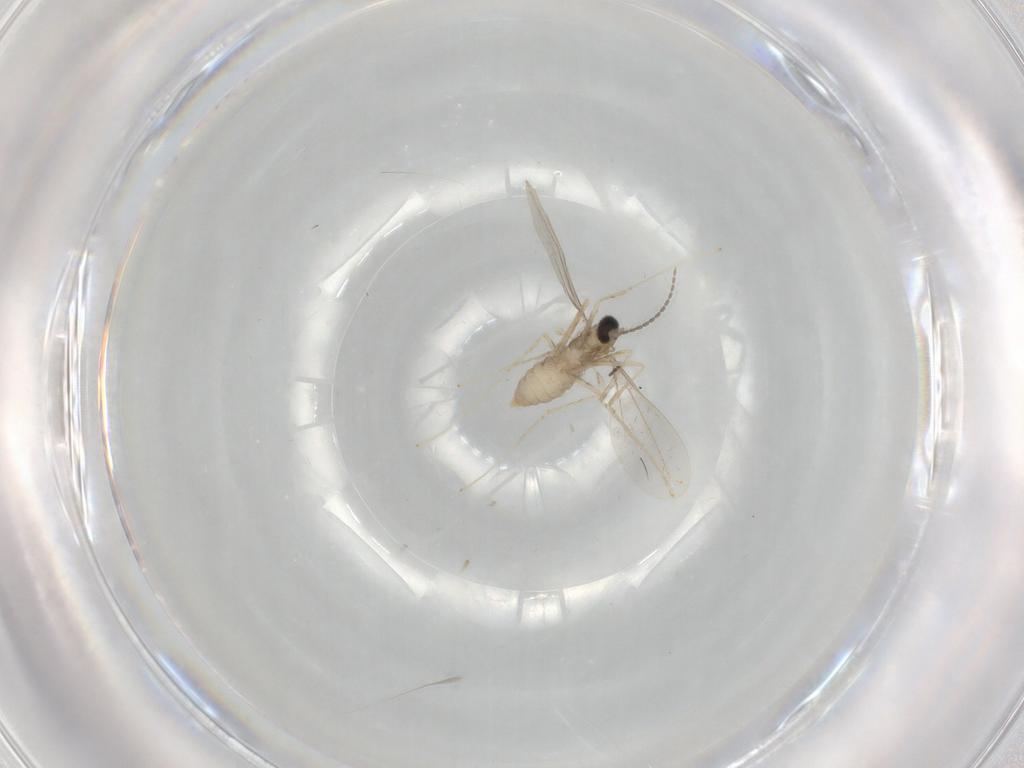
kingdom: Animalia
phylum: Arthropoda
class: Insecta
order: Diptera
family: Cecidomyiidae
